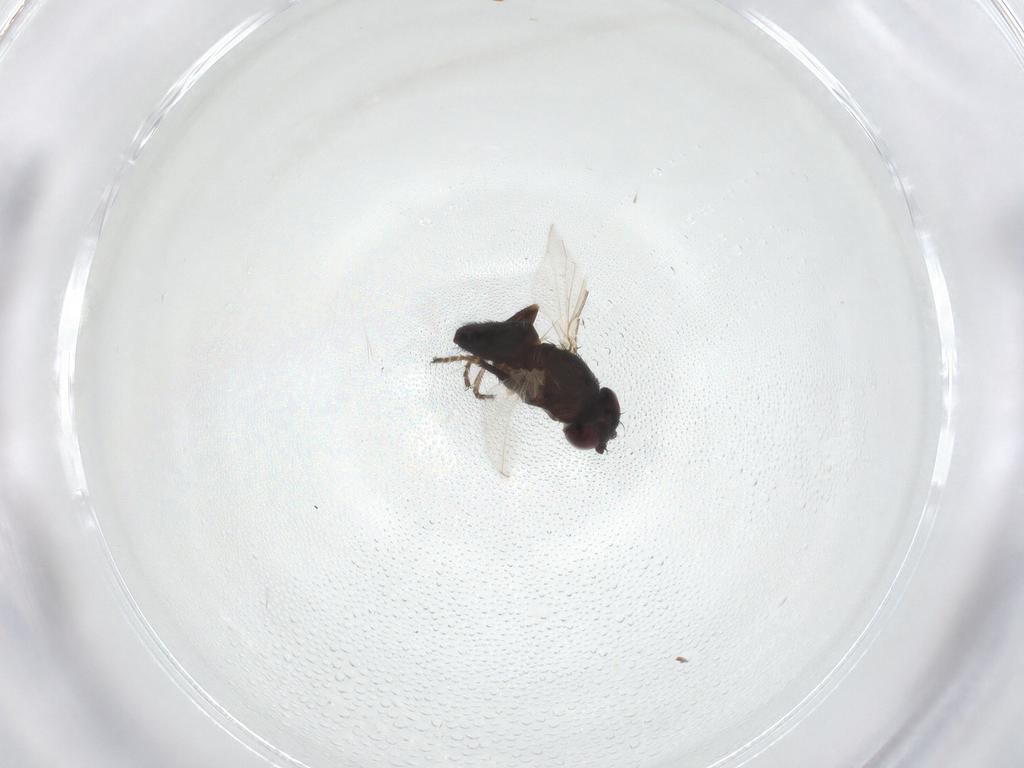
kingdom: Animalia
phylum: Arthropoda
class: Insecta
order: Diptera
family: Milichiidae
